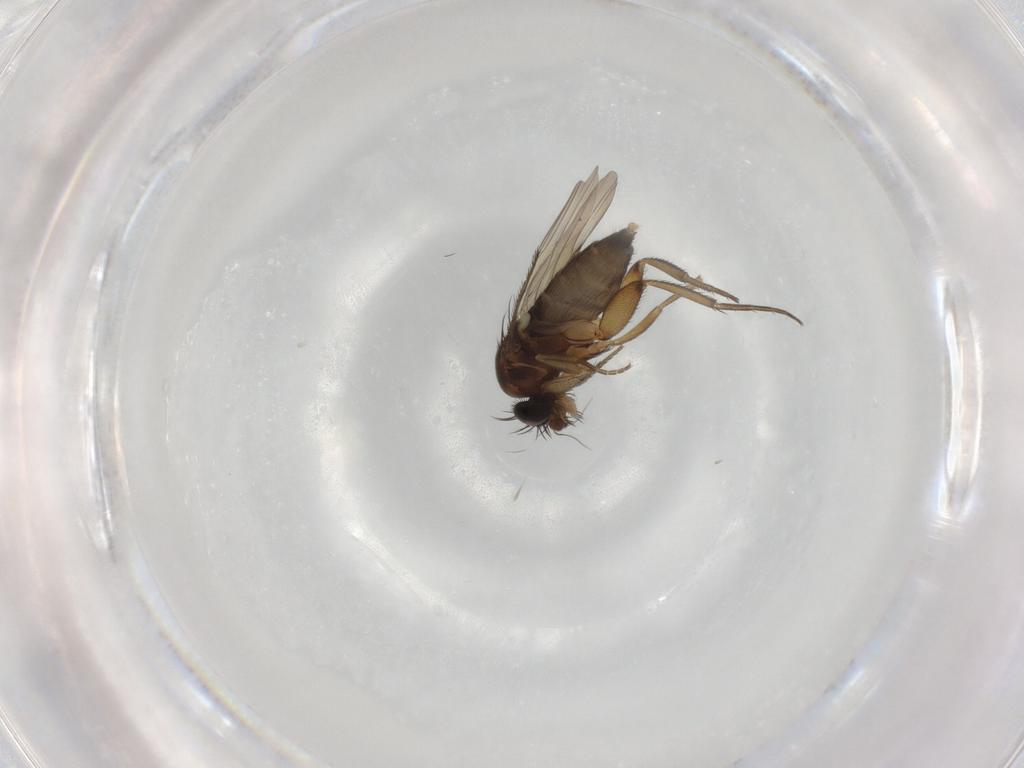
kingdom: Animalia
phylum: Arthropoda
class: Insecta
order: Diptera
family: Phoridae
